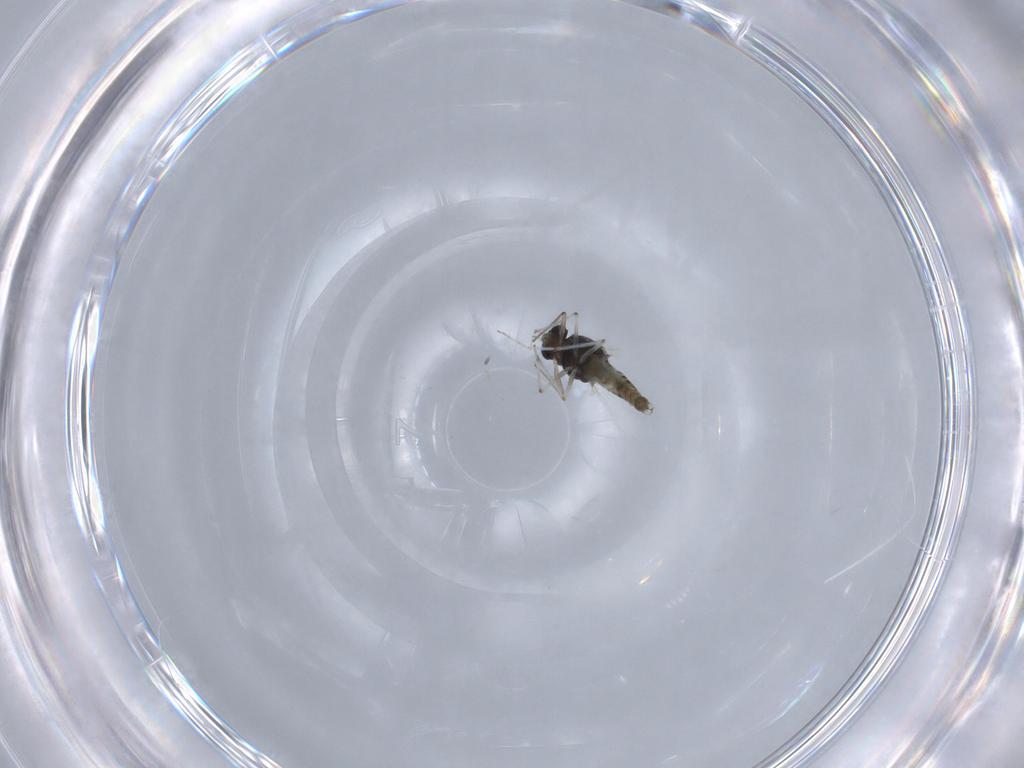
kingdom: Animalia
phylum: Arthropoda
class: Insecta
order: Diptera
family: Chironomidae
